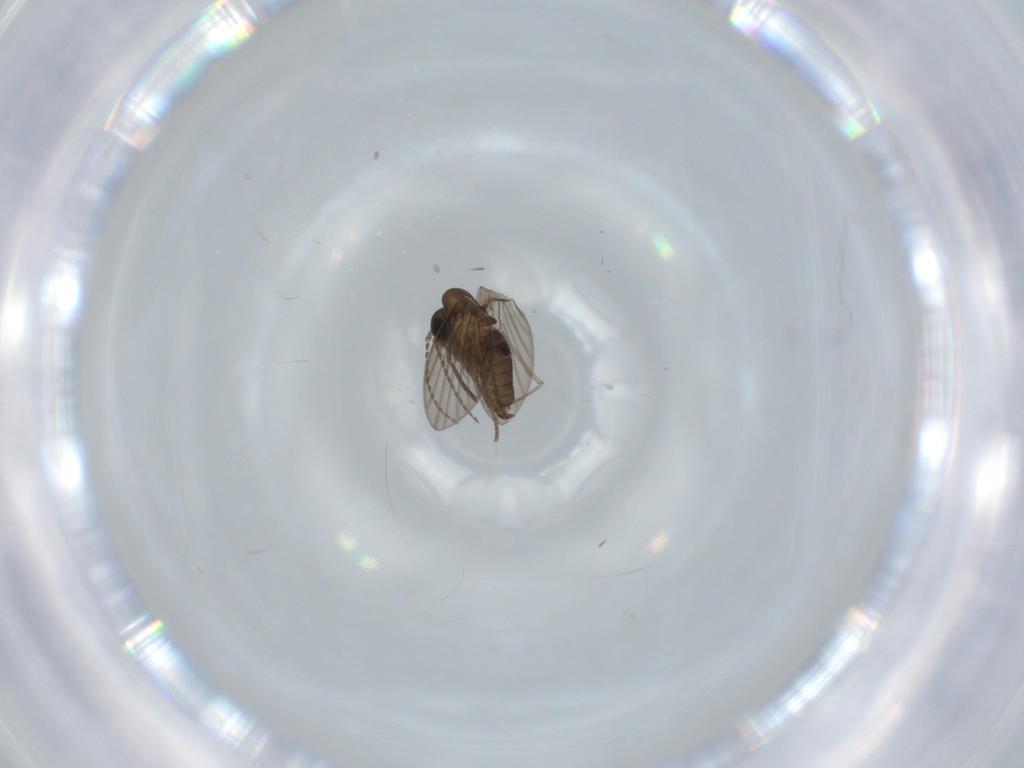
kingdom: Animalia
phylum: Arthropoda
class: Insecta
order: Diptera
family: Psychodidae
